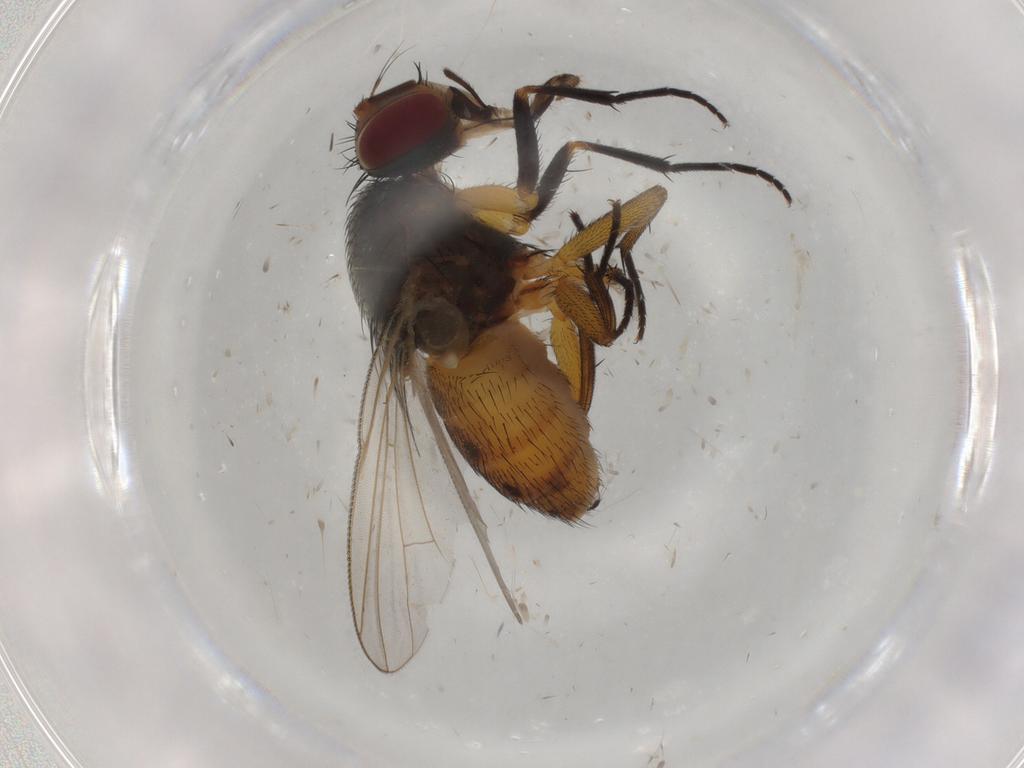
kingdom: Animalia
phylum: Arthropoda
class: Insecta
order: Diptera
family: Muscidae
